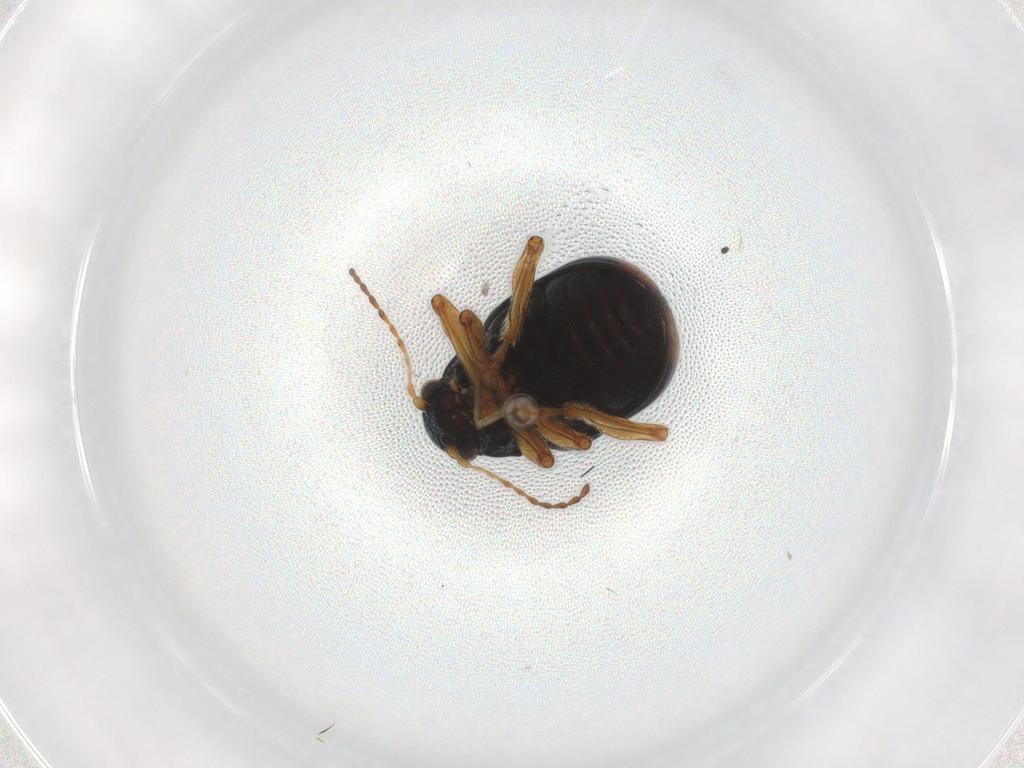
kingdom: Animalia
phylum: Arthropoda
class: Insecta
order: Coleoptera
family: Chrysomelidae
